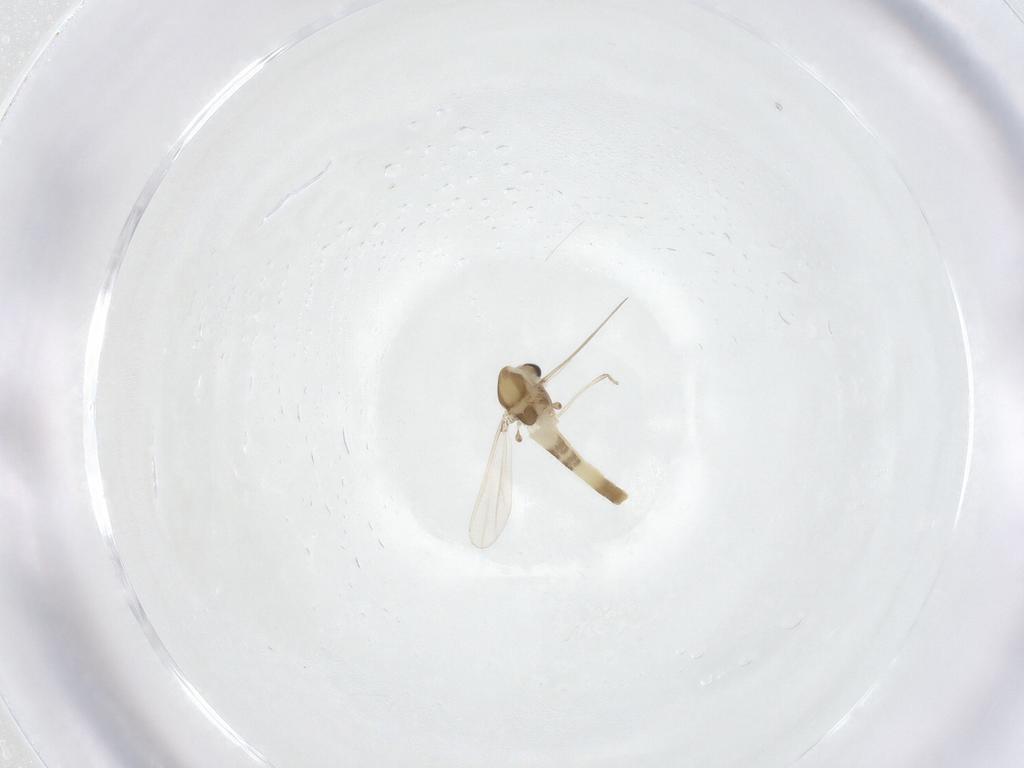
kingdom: Animalia
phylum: Arthropoda
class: Insecta
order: Diptera
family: Chironomidae
